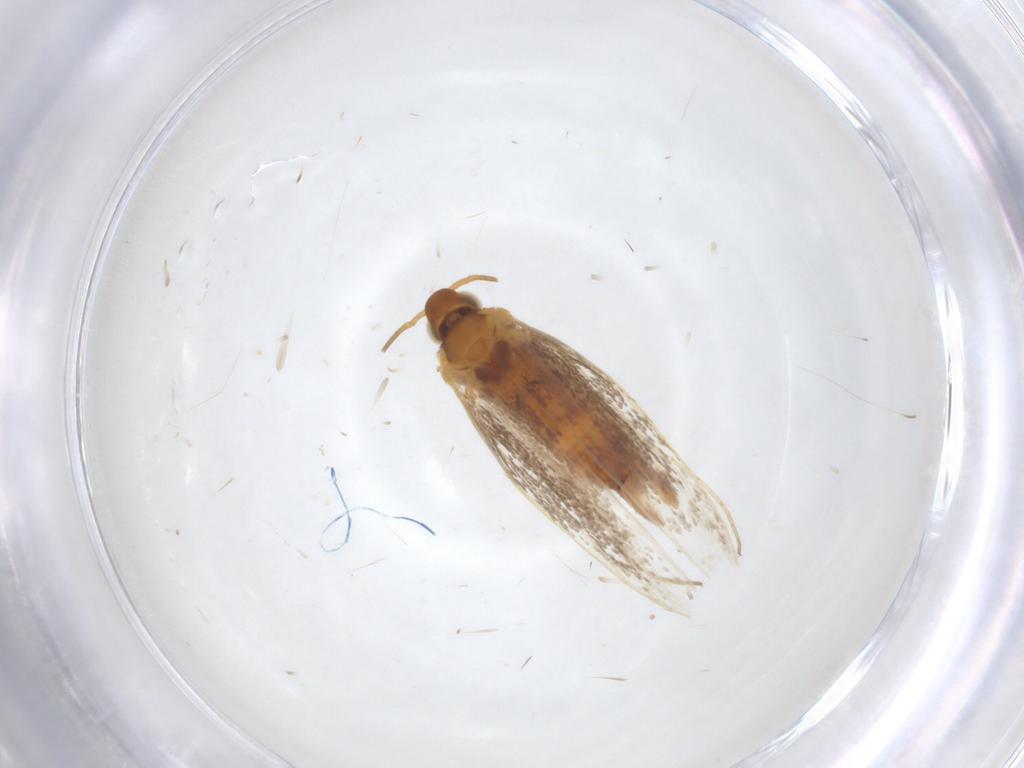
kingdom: Animalia
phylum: Arthropoda
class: Insecta
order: Lepidoptera
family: Gracillariidae
